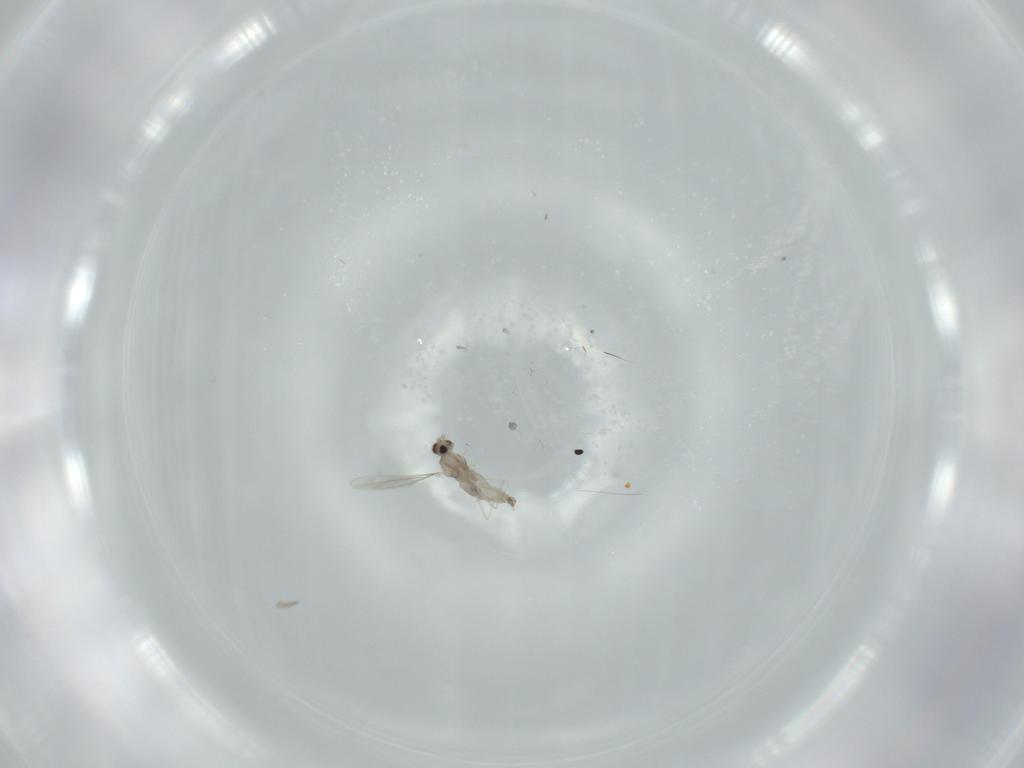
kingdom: Animalia
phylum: Arthropoda
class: Insecta
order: Diptera
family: Cecidomyiidae
